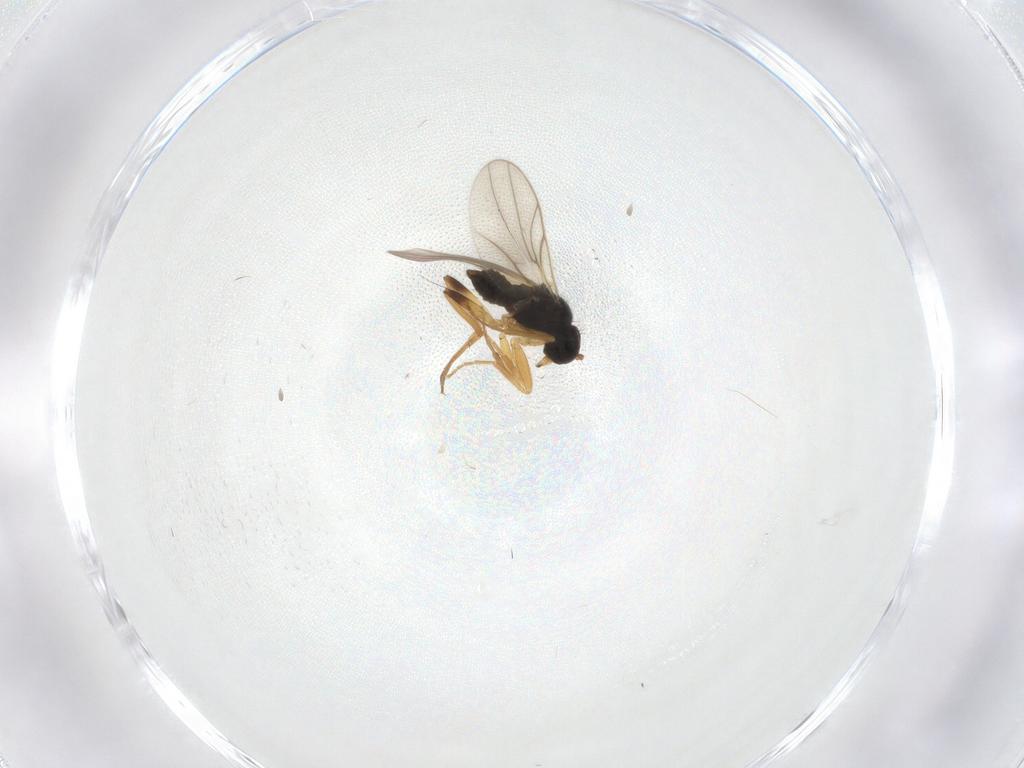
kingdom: Animalia
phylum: Arthropoda
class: Insecta
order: Diptera
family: Hybotidae
